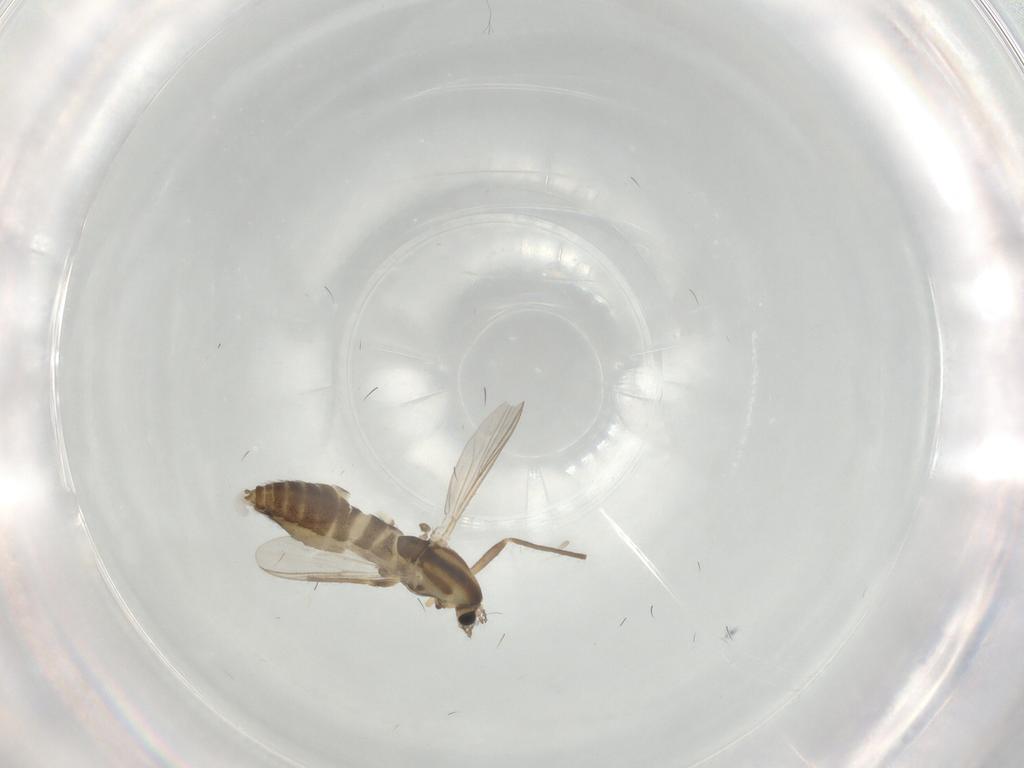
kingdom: Animalia
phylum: Arthropoda
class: Insecta
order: Diptera
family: Chironomidae
